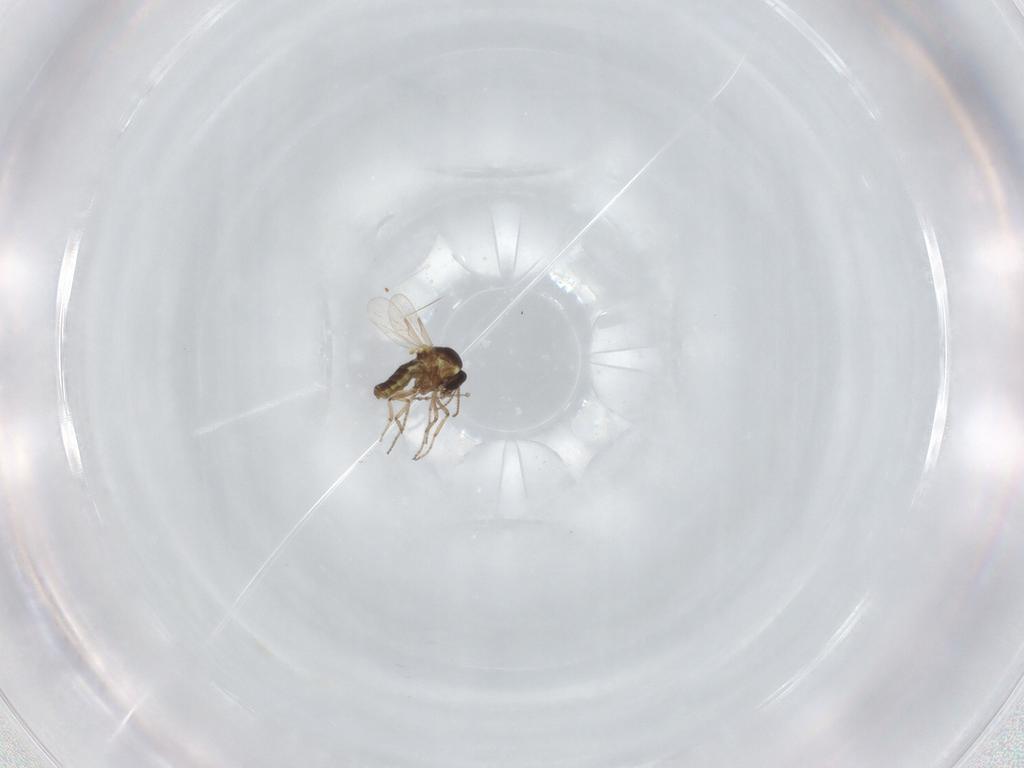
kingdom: Animalia
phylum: Arthropoda
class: Insecta
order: Diptera
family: Ceratopogonidae
